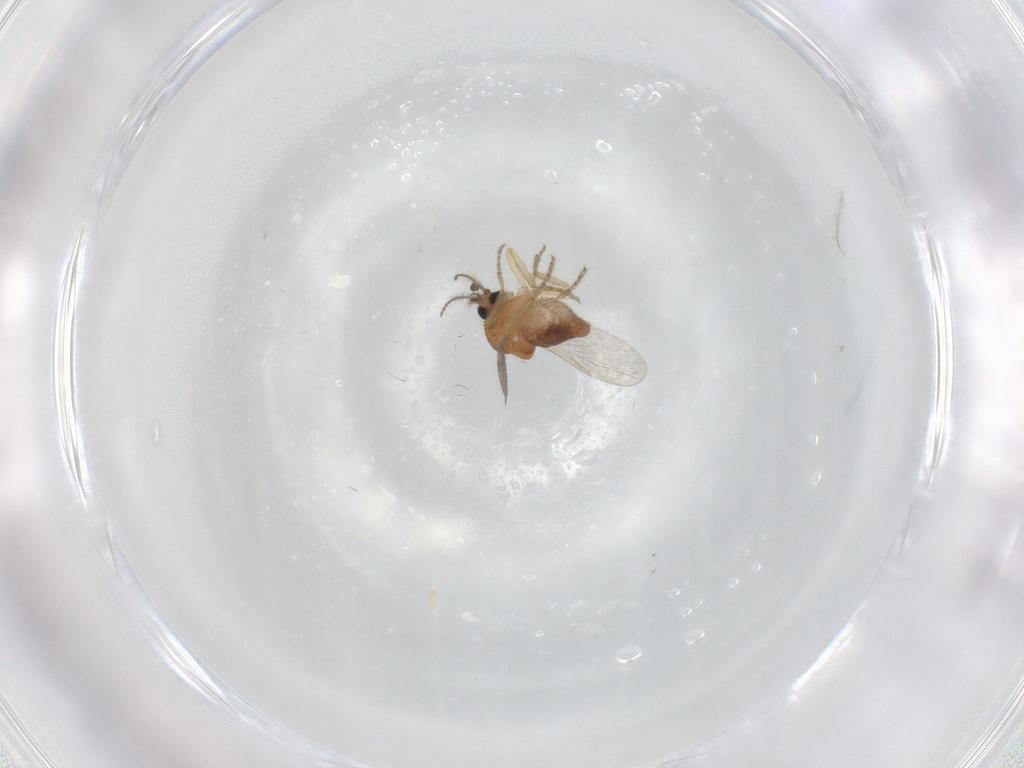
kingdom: Animalia
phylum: Arthropoda
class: Insecta
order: Diptera
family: Ceratopogonidae
